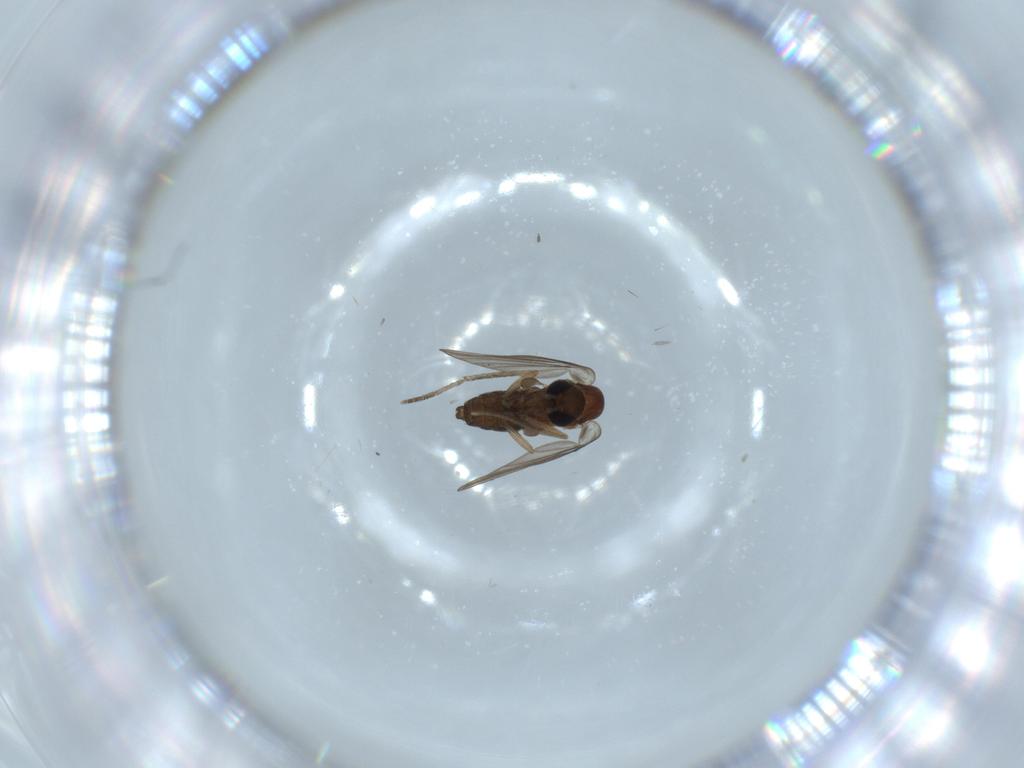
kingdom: Animalia
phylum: Arthropoda
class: Insecta
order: Diptera
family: Psychodidae
